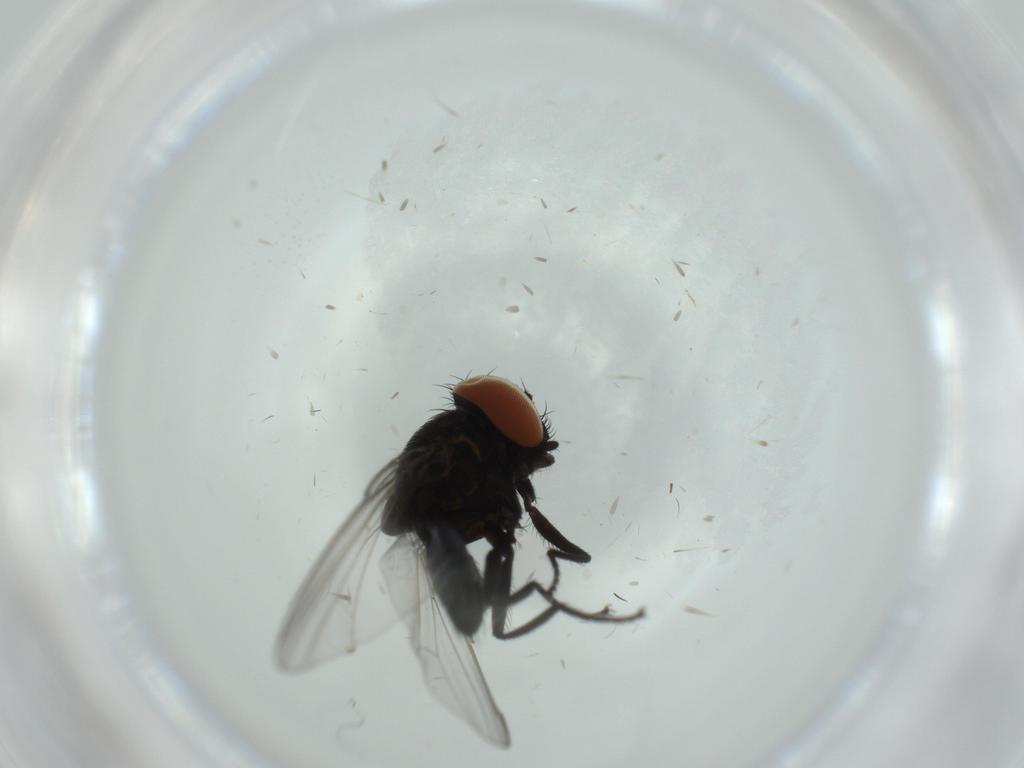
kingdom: Animalia
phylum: Arthropoda
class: Insecta
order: Diptera
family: Milichiidae
